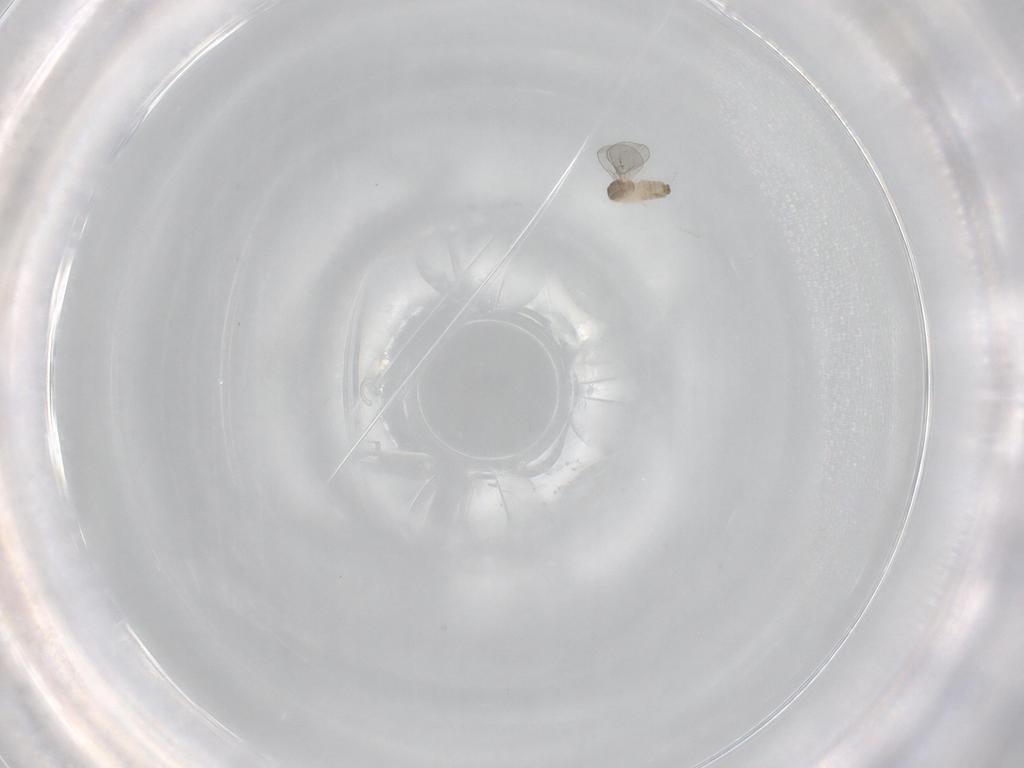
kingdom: Animalia
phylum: Arthropoda
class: Insecta
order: Diptera
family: Cecidomyiidae
